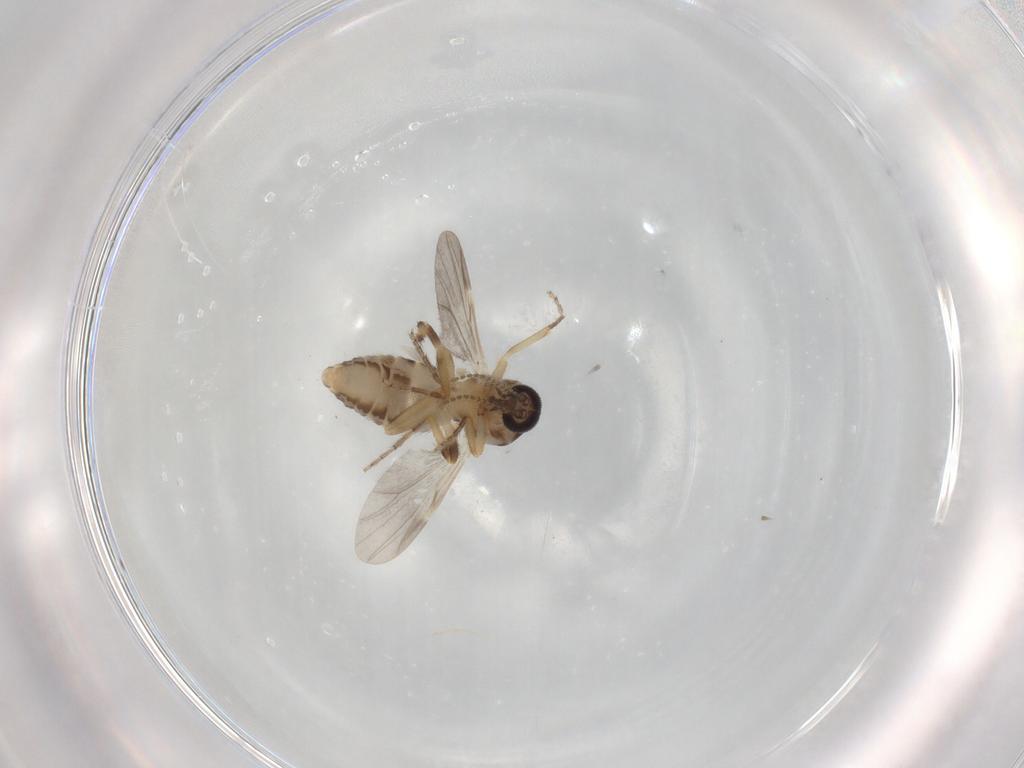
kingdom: Animalia
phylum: Arthropoda
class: Insecta
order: Diptera
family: Ceratopogonidae
